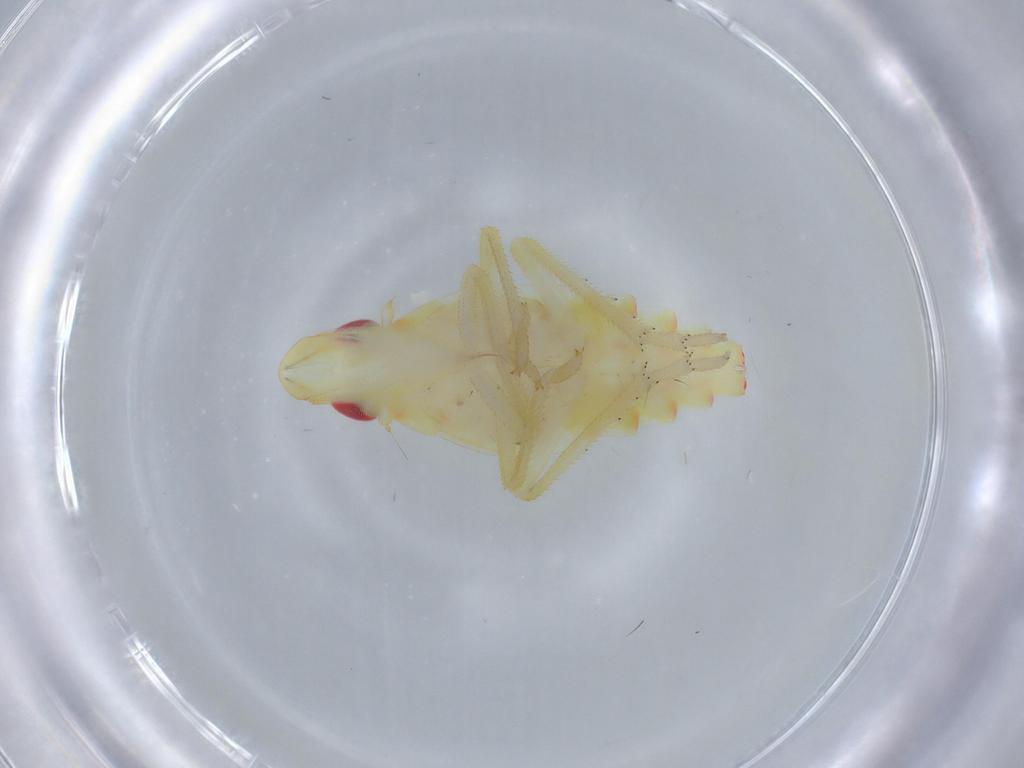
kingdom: Animalia
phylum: Arthropoda
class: Insecta
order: Hemiptera
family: Tropiduchidae
